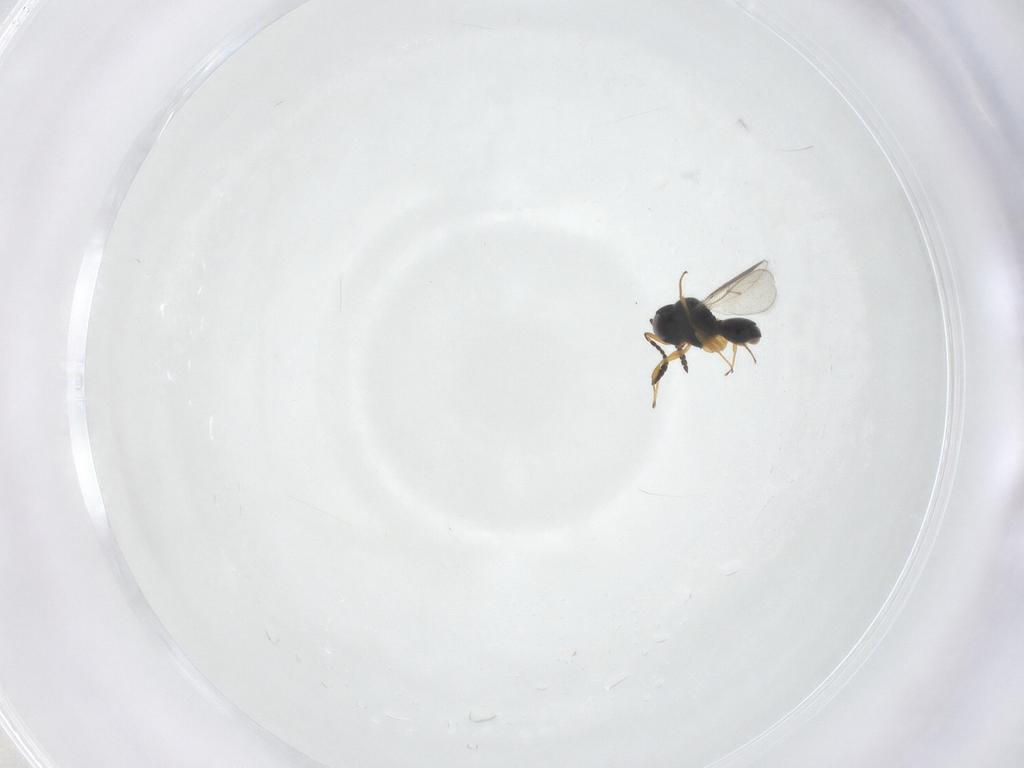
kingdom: Animalia
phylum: Arthropoda
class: Insecta
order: Hymenoptera
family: Scelionidae
